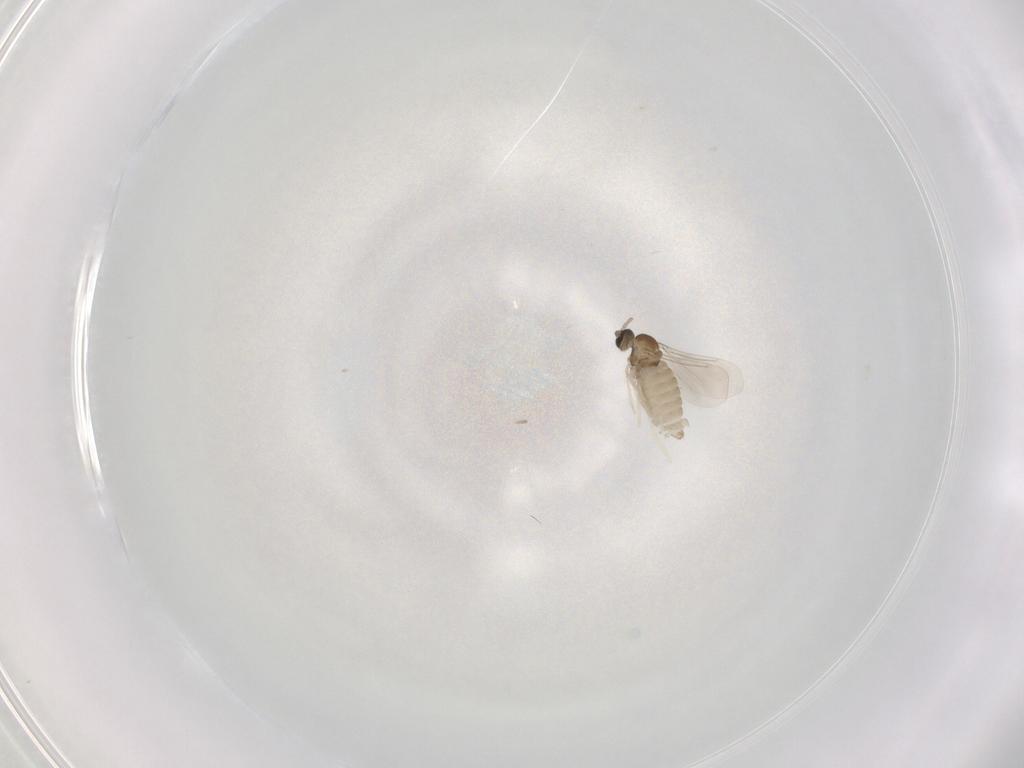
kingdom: Animalia
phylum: Arthropoda
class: Insecta
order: Diptera
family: Cecidomyiidae
